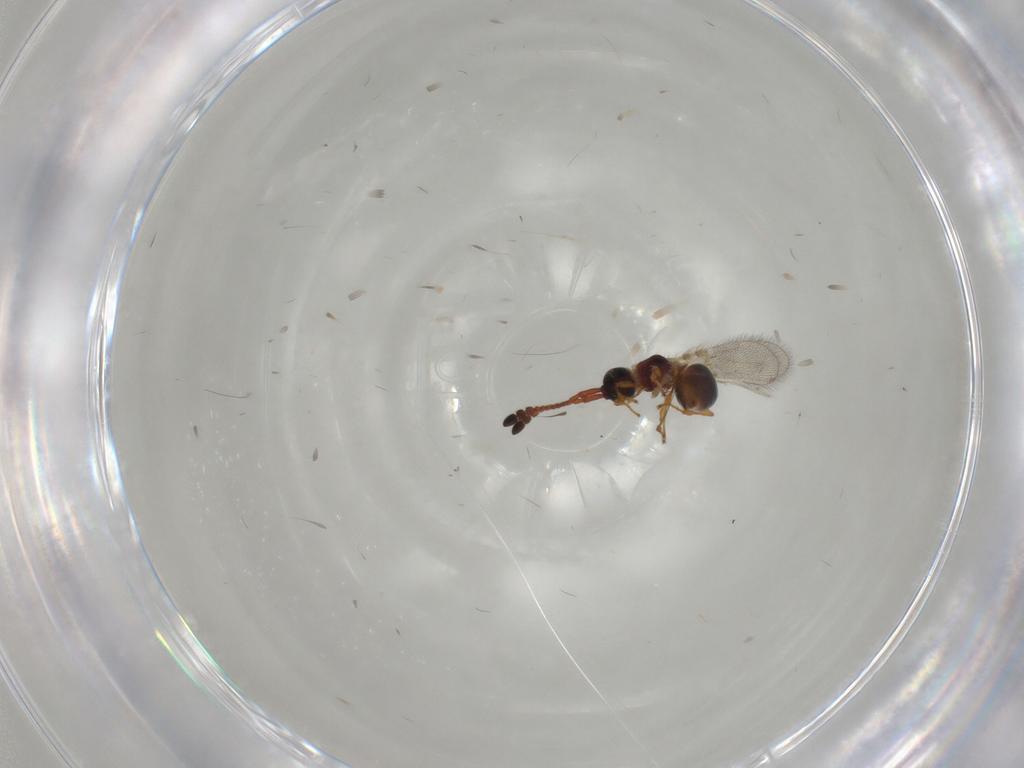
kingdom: Animalia
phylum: Arthropoda
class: Insecta
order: Hymenoptera
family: Diapriidae
